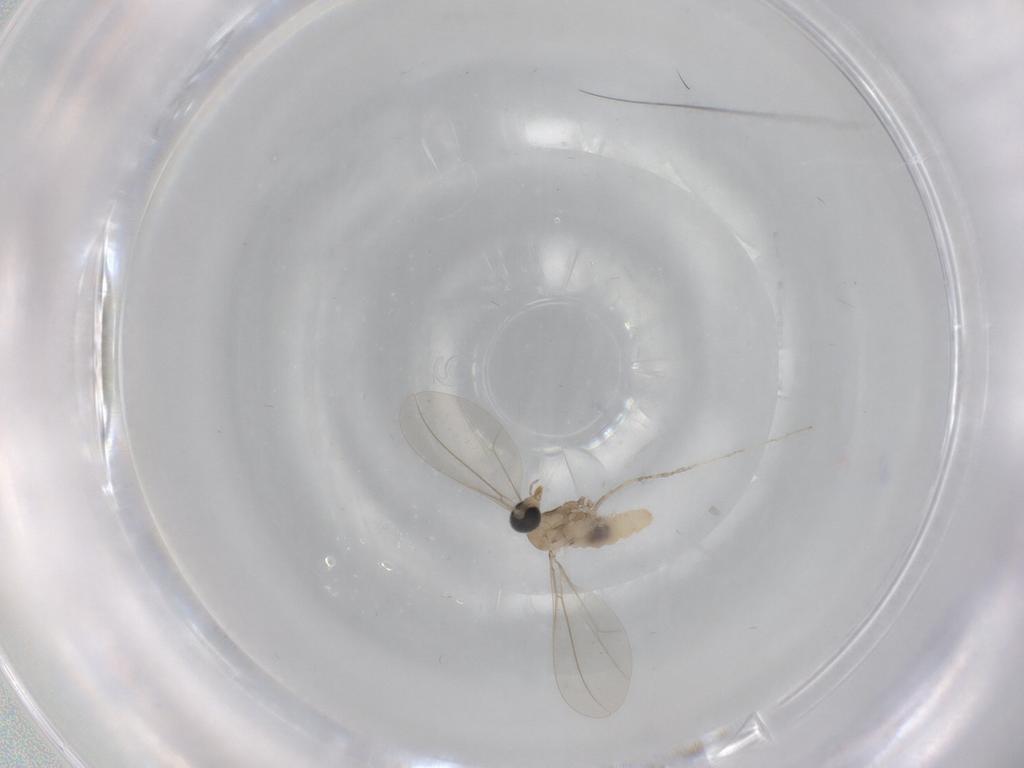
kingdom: Animalia
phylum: Arthropoda
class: Insecta
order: Diptera
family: Cecidomyiidae
